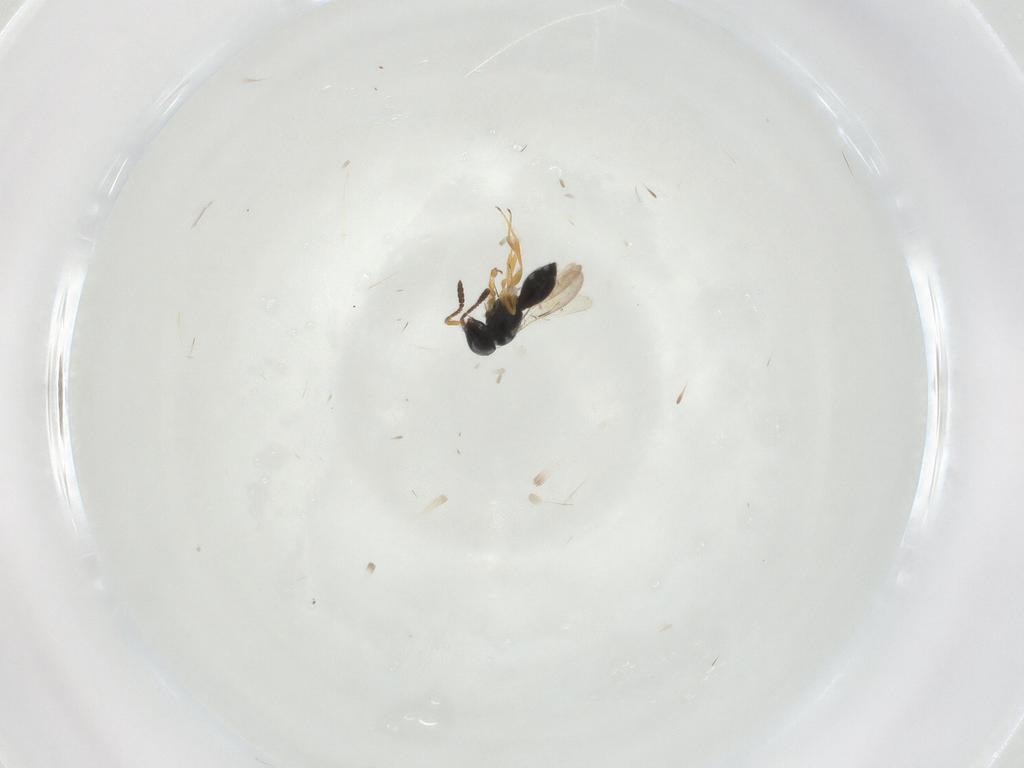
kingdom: Animalia
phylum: Arthropoda
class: Insecta
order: Hymenoptera
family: Scelionidae
